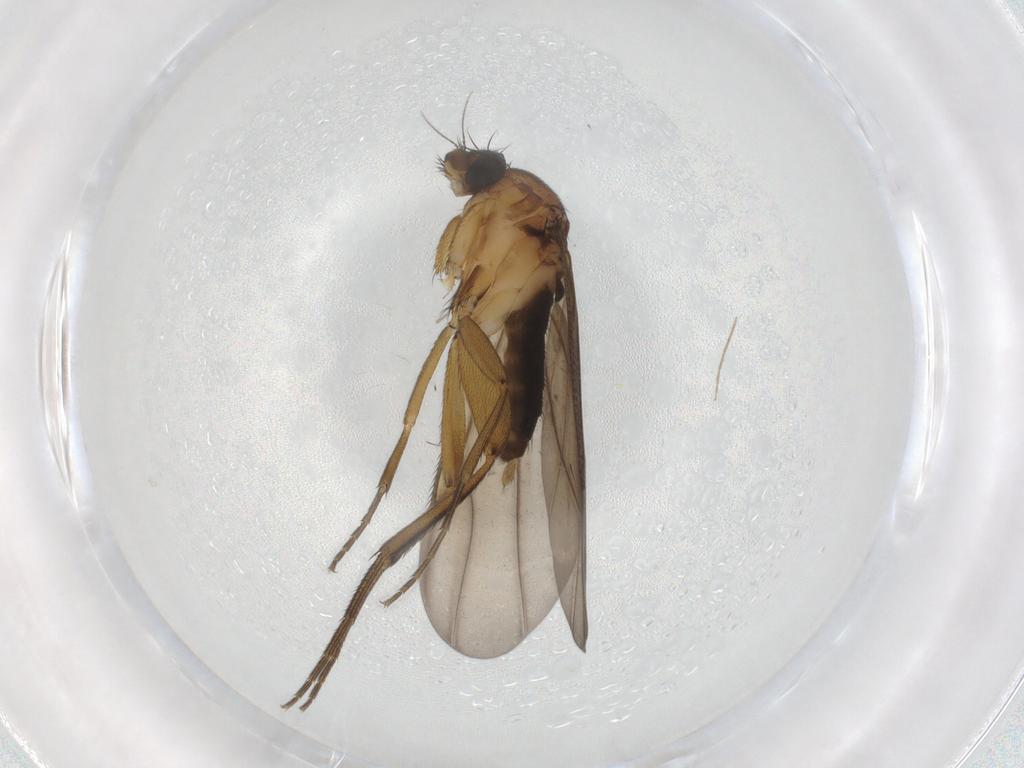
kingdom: Animalia
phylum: Arthropoda
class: Insecta
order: Diptera
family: Phoridae
